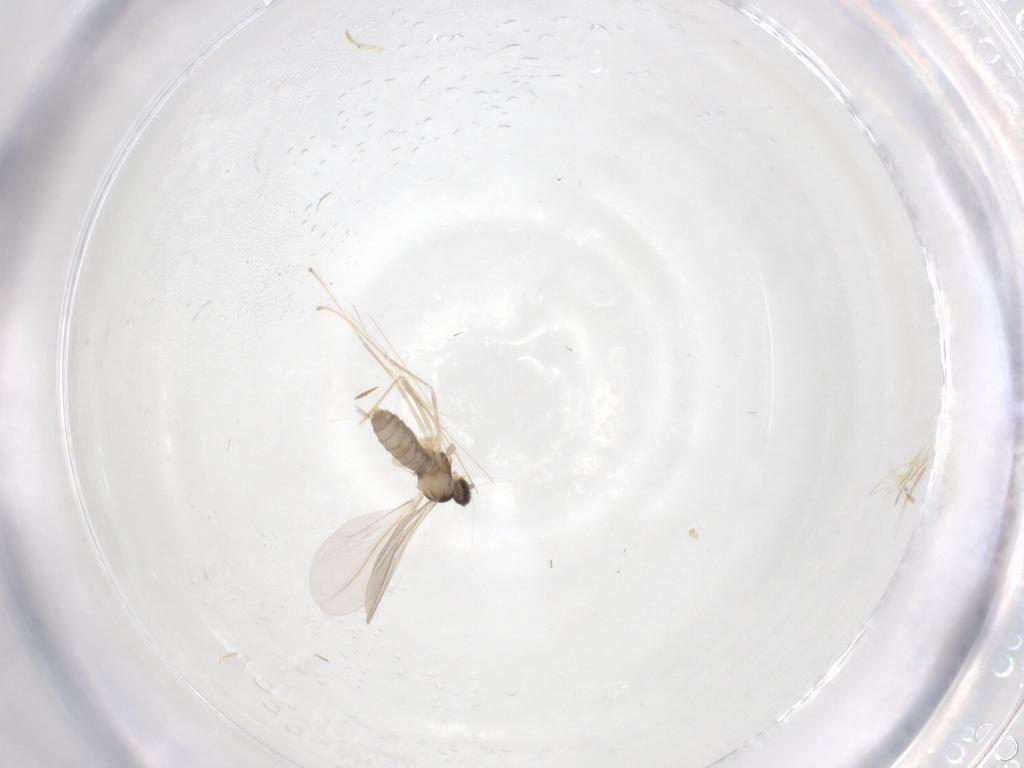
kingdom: Animalia
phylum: Arthropoda
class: Insecta
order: Diptera
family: Cecidomyiidae
